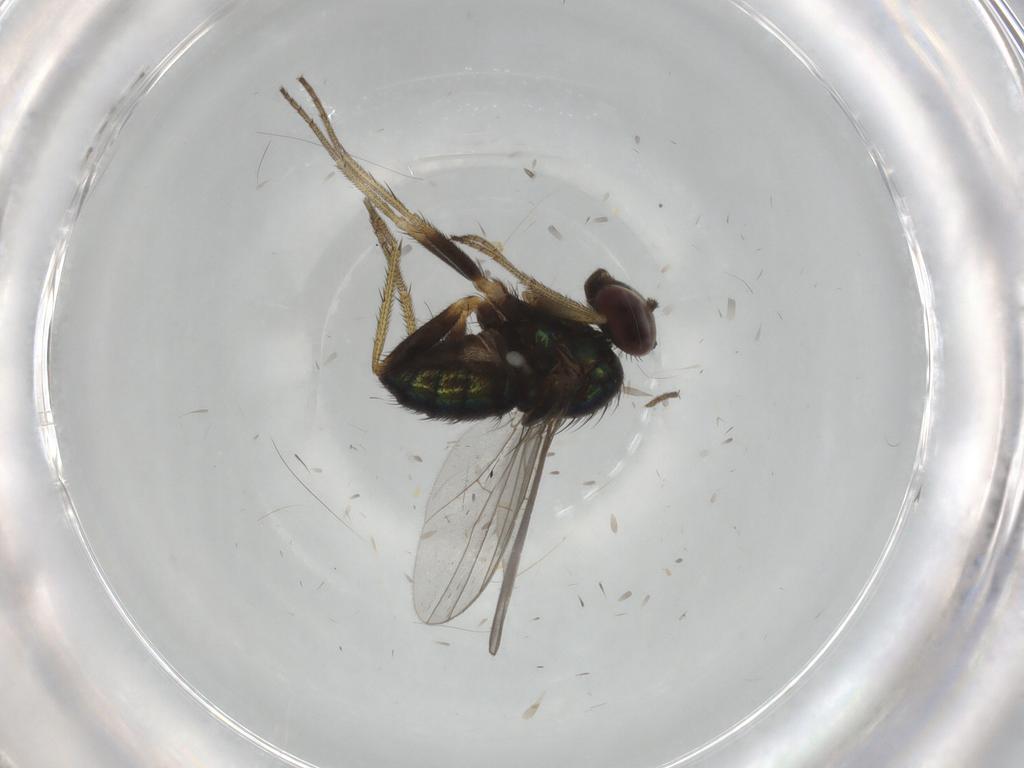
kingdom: Animalia
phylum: Arthropoda
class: Insecta
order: Diptera
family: Chironomidae
